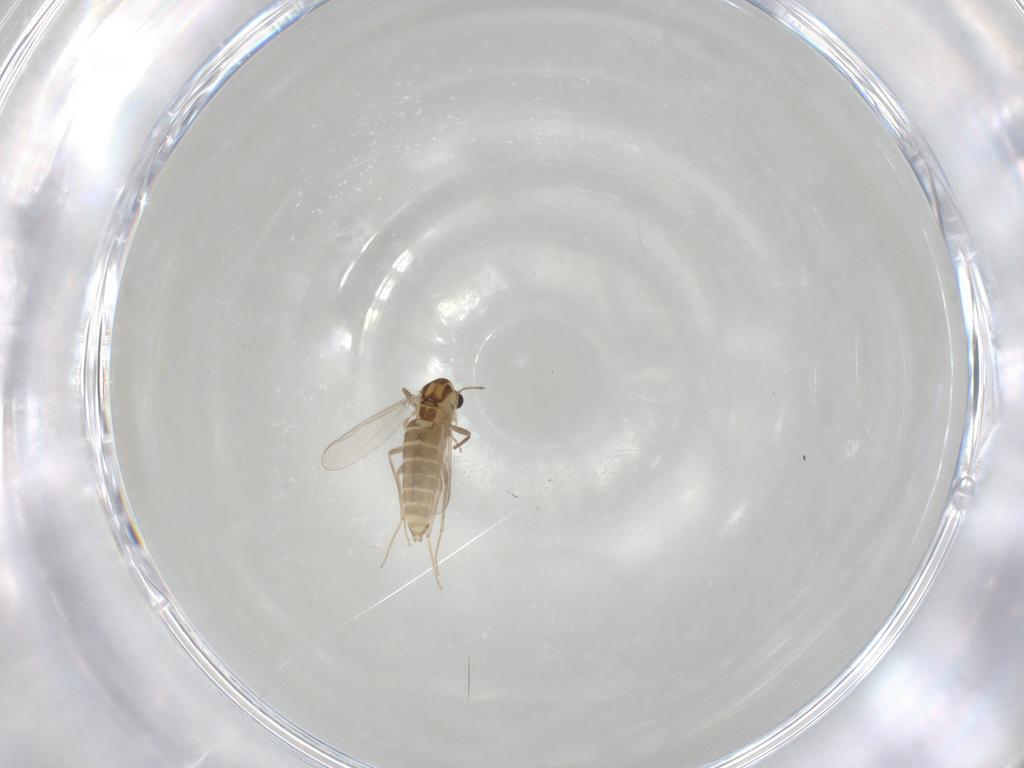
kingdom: Animalia
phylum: Arthropoda
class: Insecta
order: Diptera
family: Chironomidae
